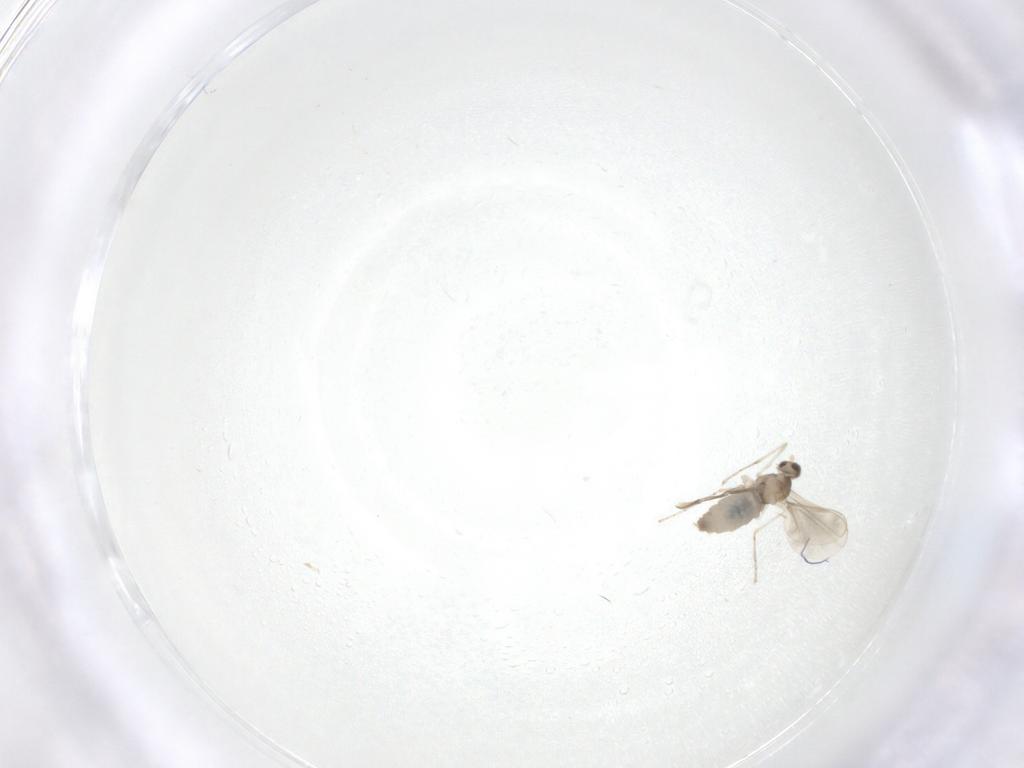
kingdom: Animalia
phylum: Arthropoda
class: Insecta
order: Diptera
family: Cecidomyiidae
